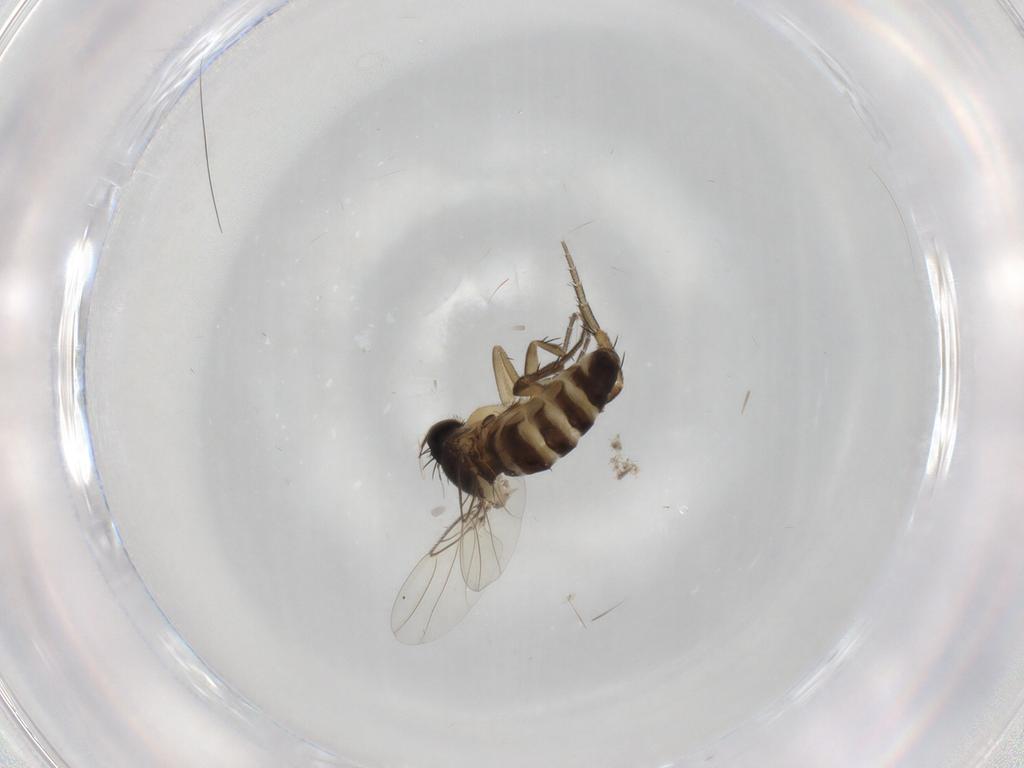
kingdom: Animalia
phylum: Arthropoda
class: Insecta
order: Diptera
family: Phoridae
